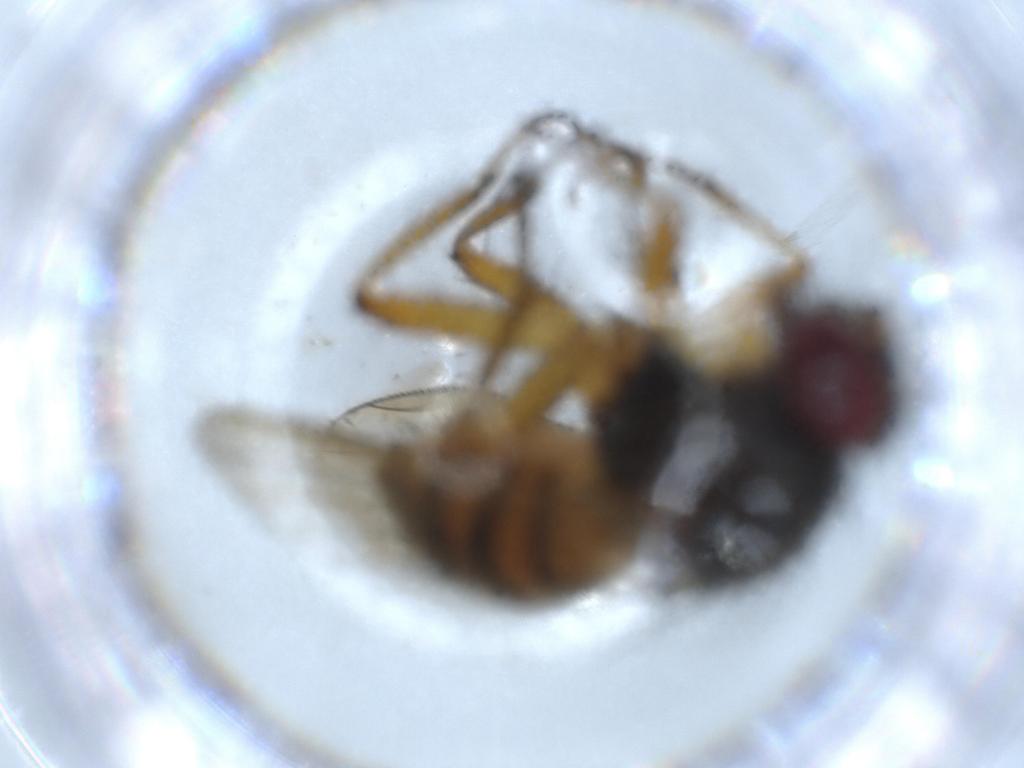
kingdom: Animalia
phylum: Arthropoda
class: Insecta
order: Diptera
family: Muscidae
